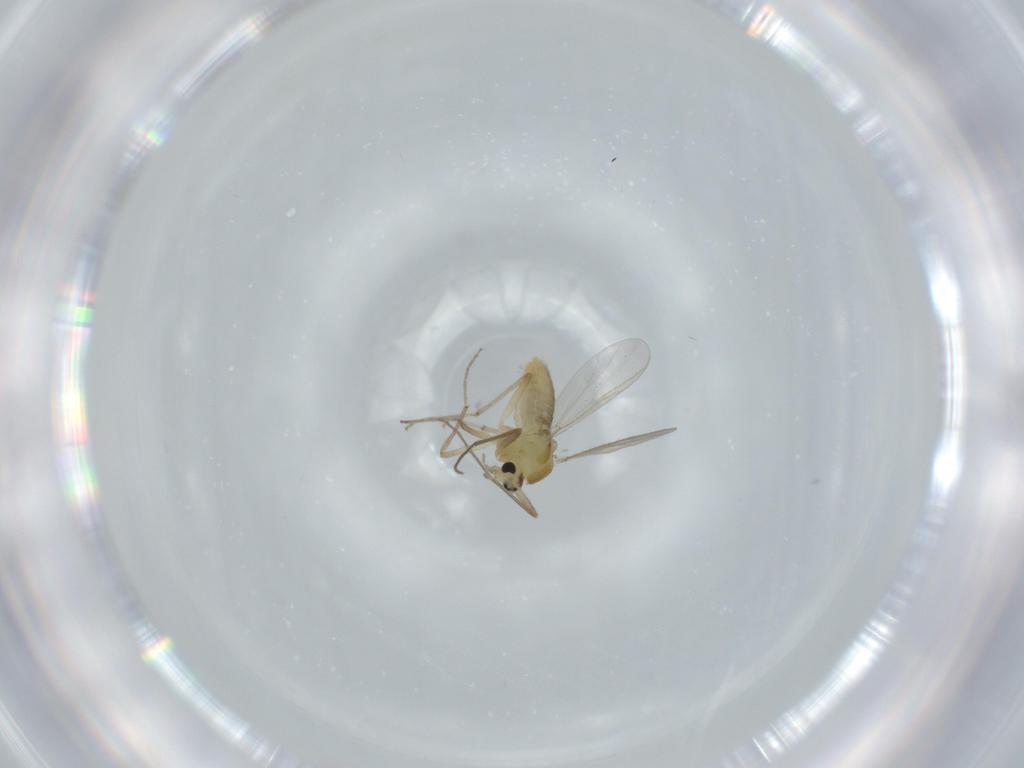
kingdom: Animalia
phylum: Arthropoda
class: Insecta
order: Diptera
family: Chironomidae
